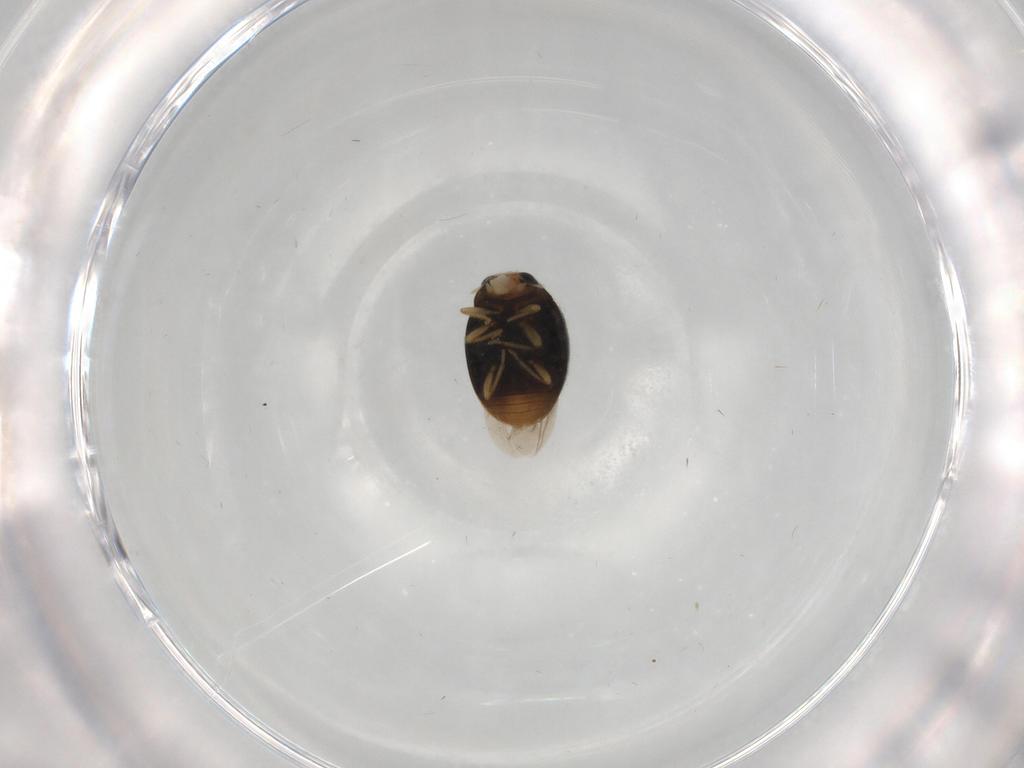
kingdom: Animalia
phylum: Arthropoda
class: Insecta
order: Coleoptera
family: Coccinellidae
